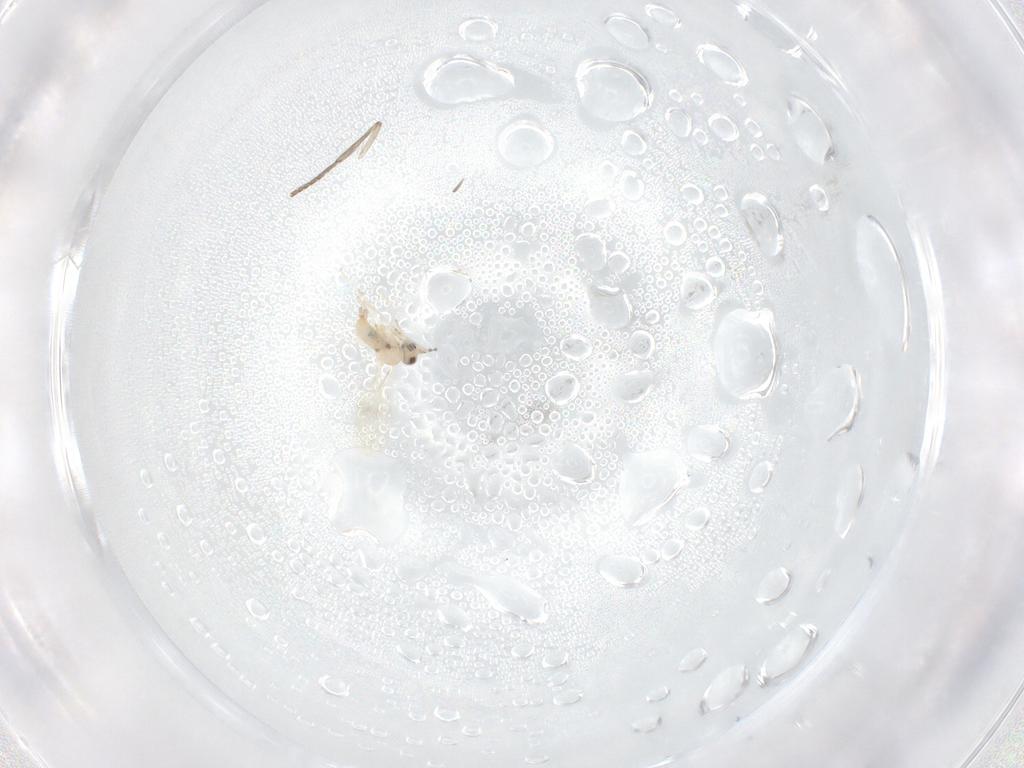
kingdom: Animalia
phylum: Arthropoda
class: Insecta
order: Diptera
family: Psychodidae
